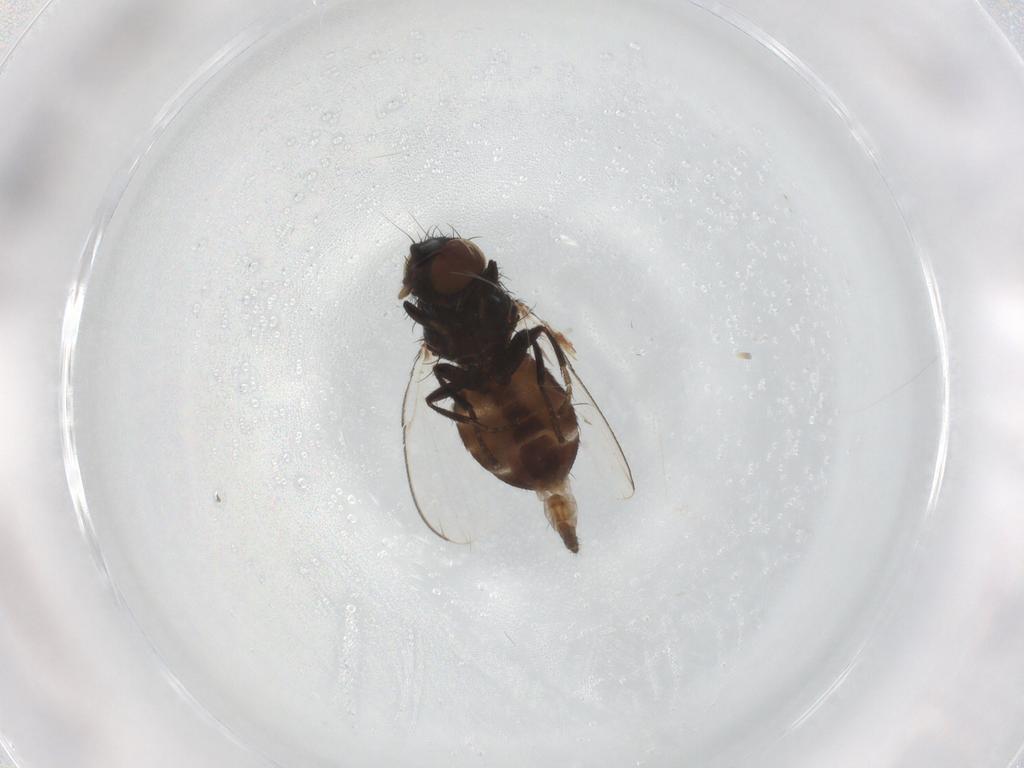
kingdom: Animalia
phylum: Arthropoda
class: Insecta
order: Diptera
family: Milichiidae
